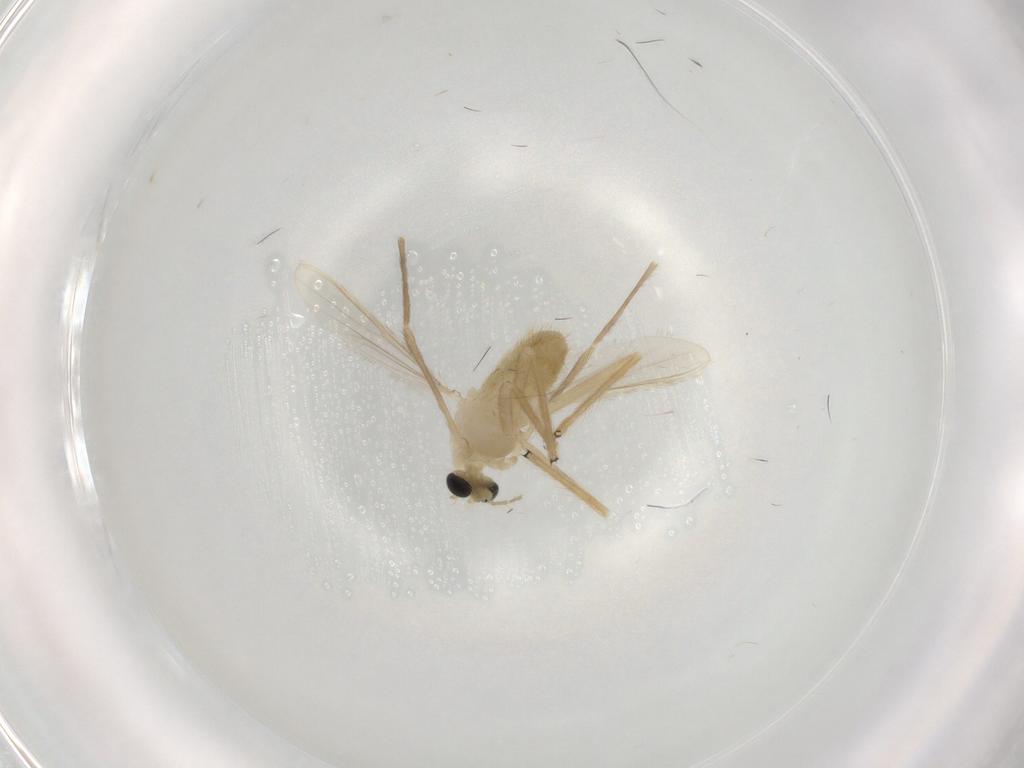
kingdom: Animalia
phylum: Arthropoda
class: Insecta
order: Diptera
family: Chironomidae
